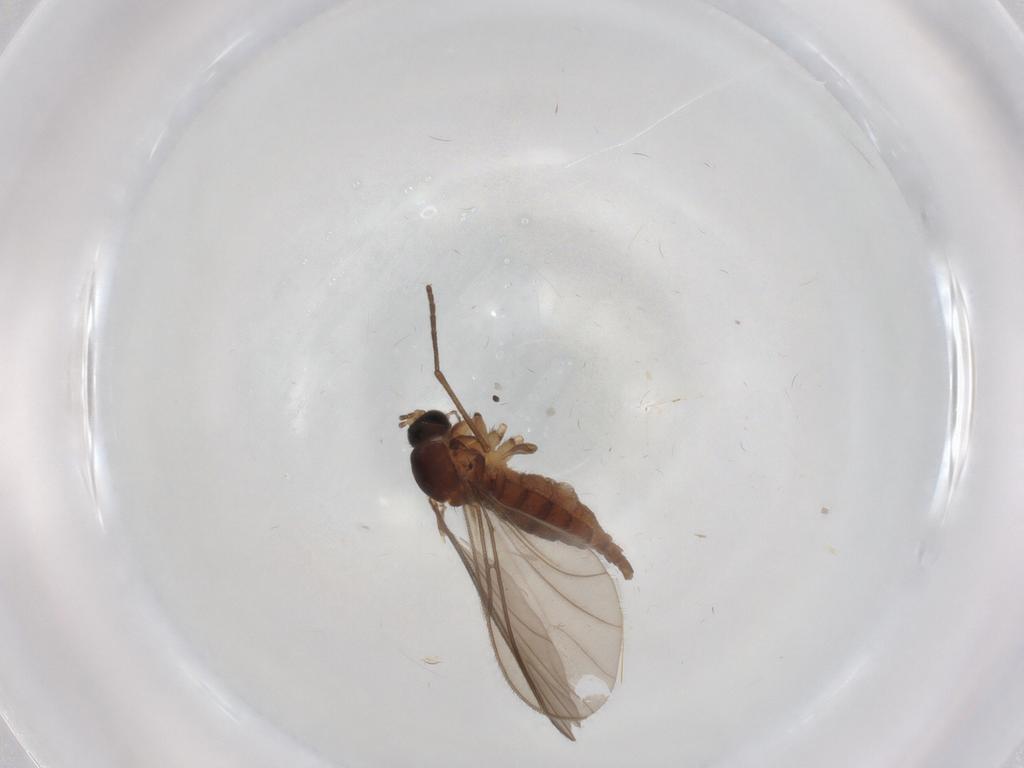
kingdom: Animalia
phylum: Arthropoda
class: Insecta
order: Diptera
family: Sciaridae
